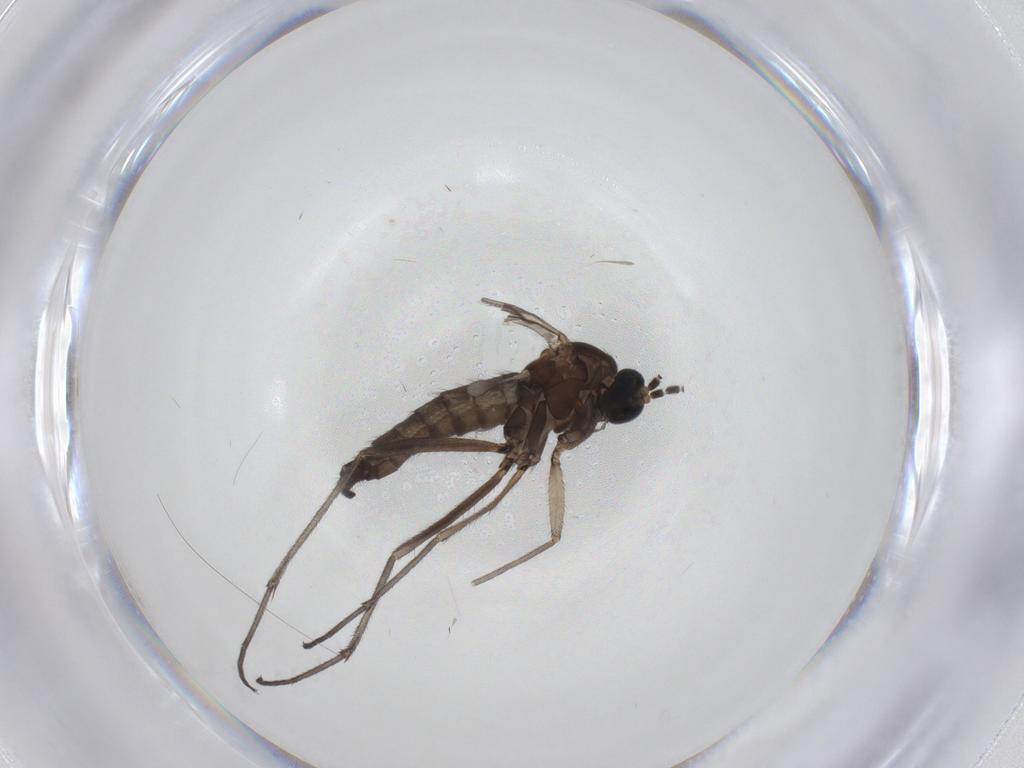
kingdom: Animalia
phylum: Arthropoda
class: Insecta
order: Diptera
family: Sciaridae
